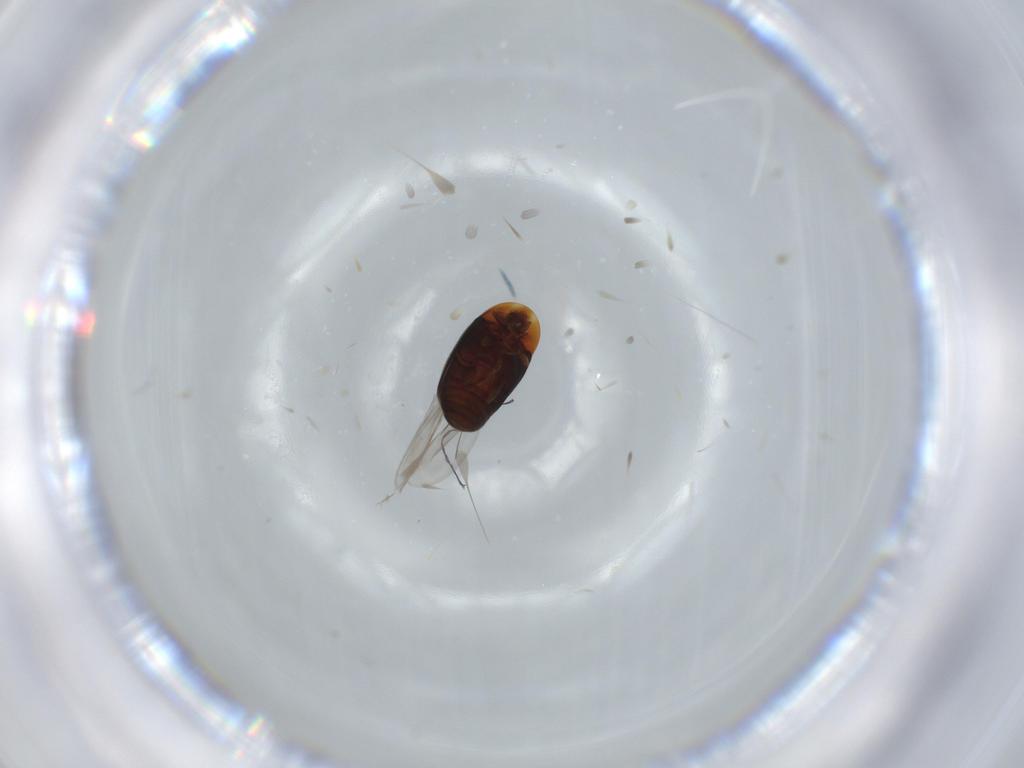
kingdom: Animalia
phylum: Arthropoda
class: Insecta
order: Coleoptera
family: Corylophidae
